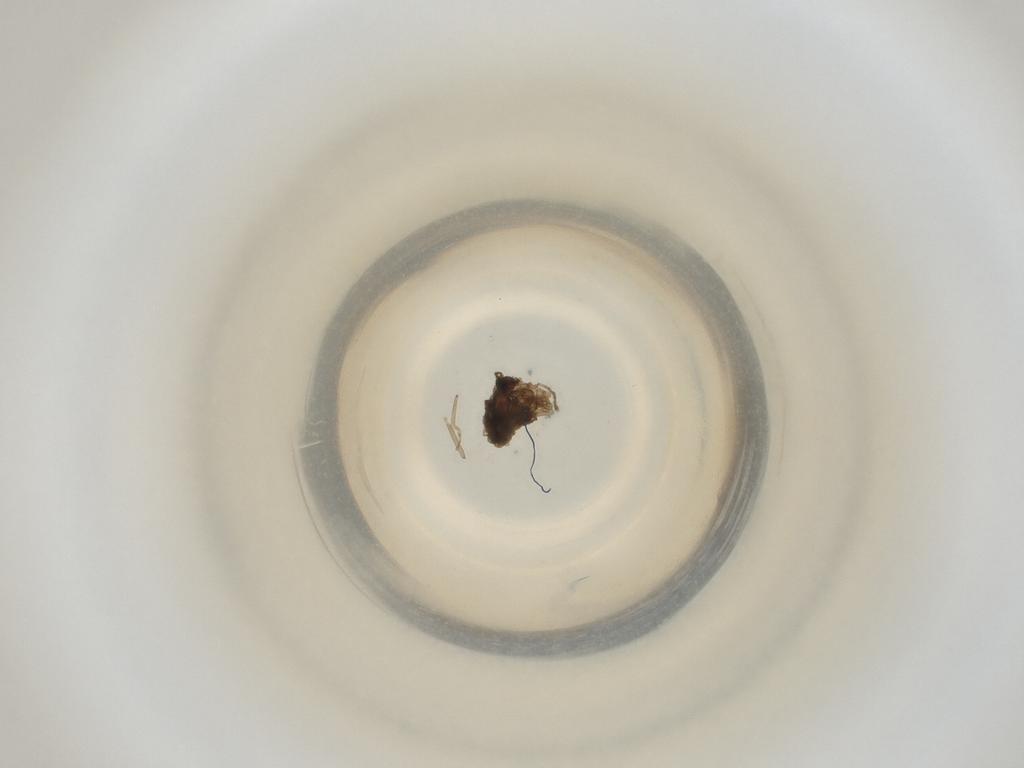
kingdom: Animalia
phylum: Arthropoda
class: Insecta
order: Diptera
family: Cecidomyiidae
